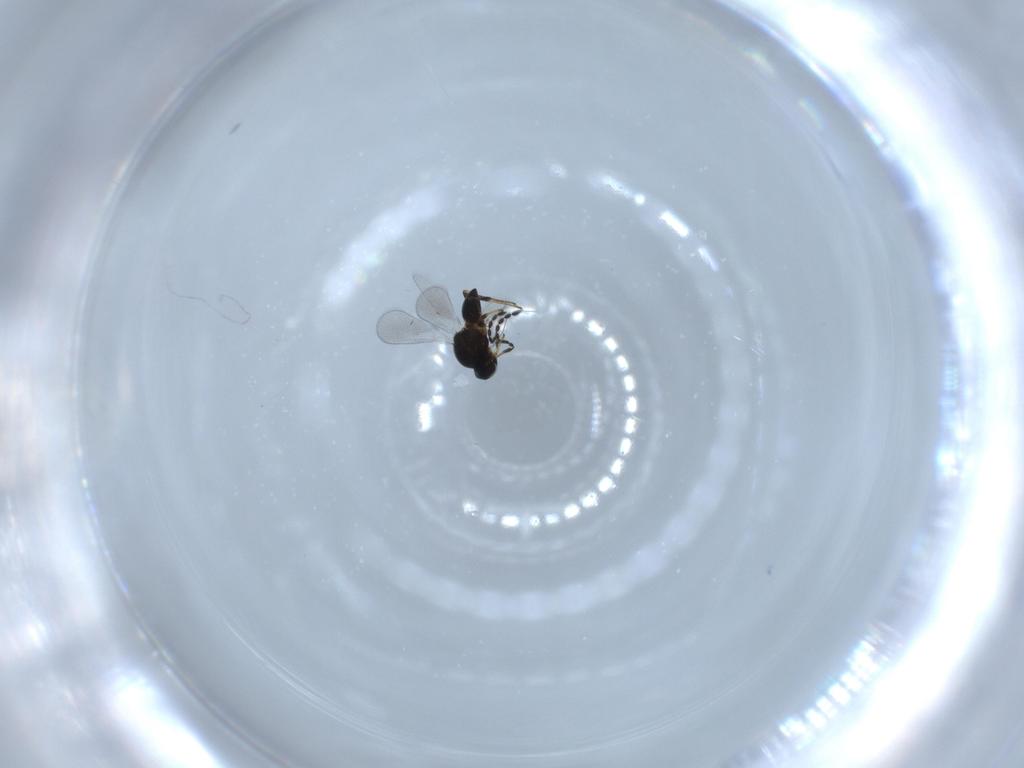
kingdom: Animalia
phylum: Arthropoda
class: Insecta
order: Hymenoptera
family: Platygastridae
